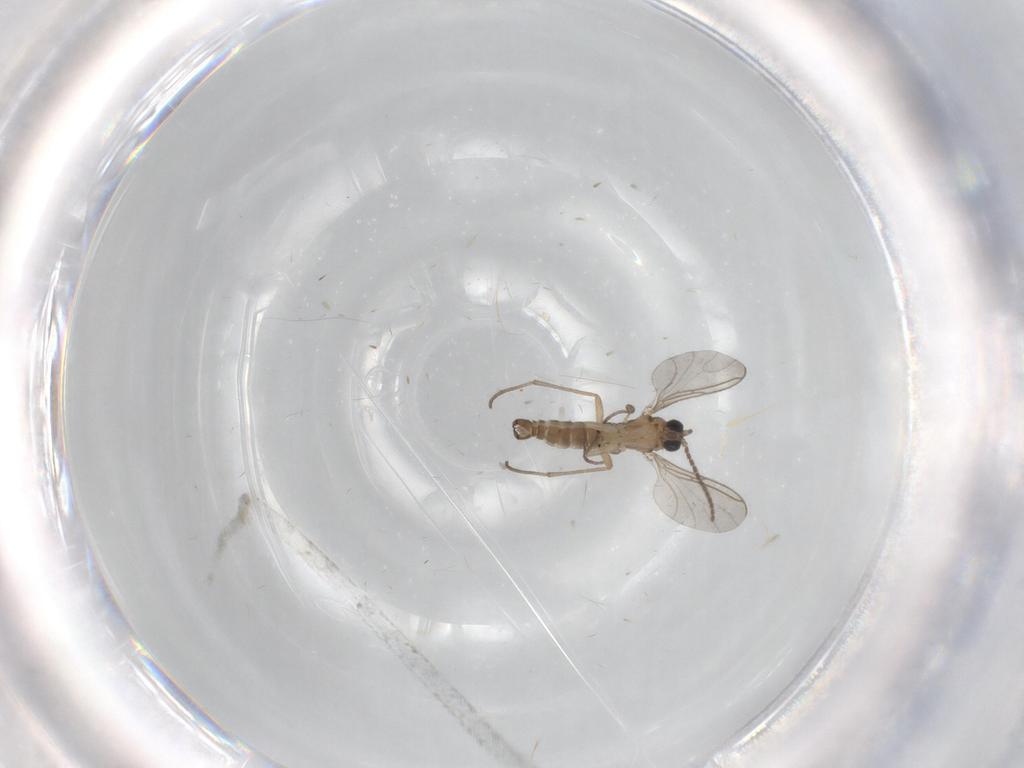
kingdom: Animalia
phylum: Arthropoda
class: Insecta
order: Diptera
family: Sciaridae
